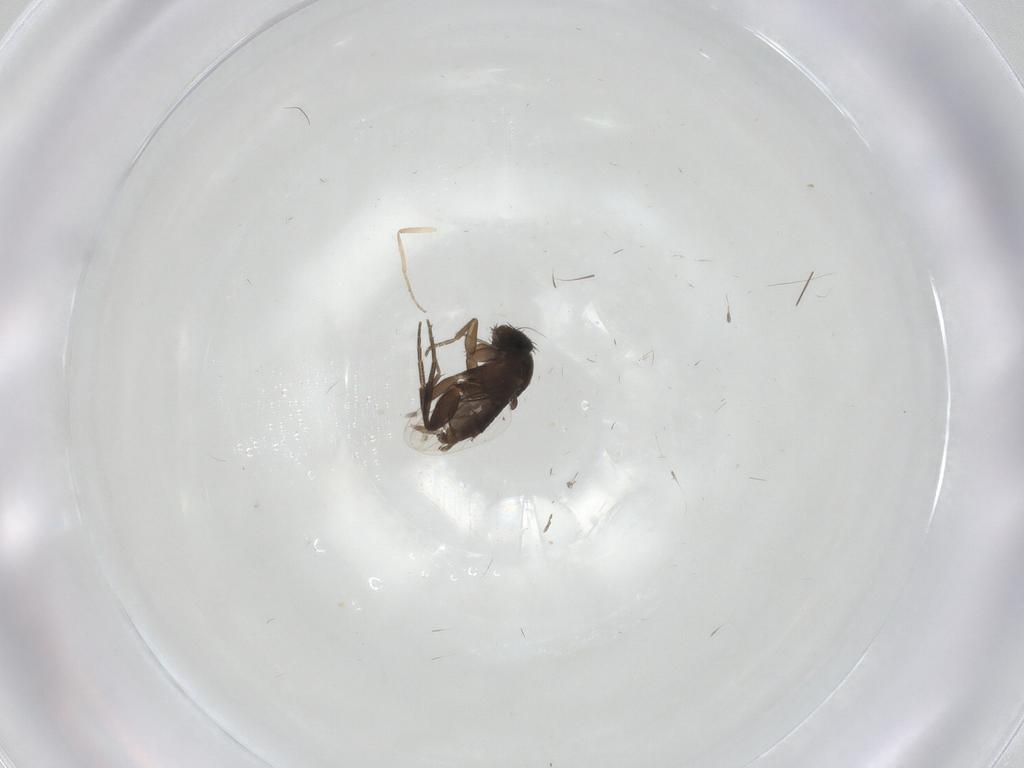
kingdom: Animalia
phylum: Arthropoda
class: Insecta
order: Diptera
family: Phoridae
